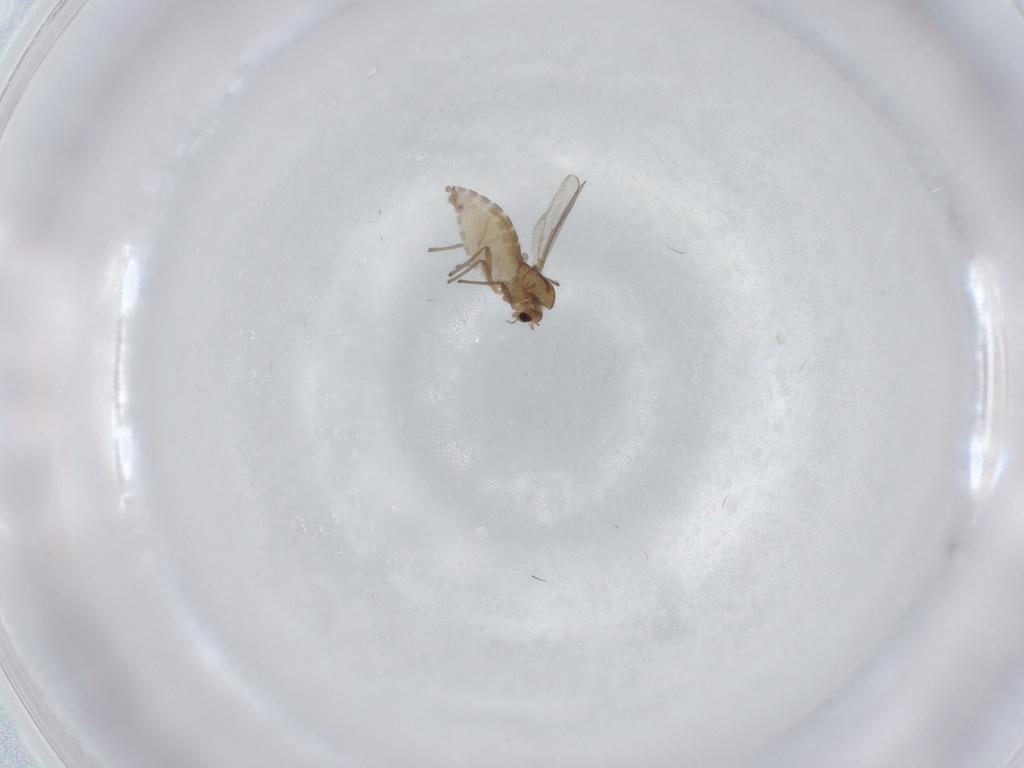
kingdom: Animalia
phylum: Arthropoda
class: Insecta
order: Diptera
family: Chironomidae
